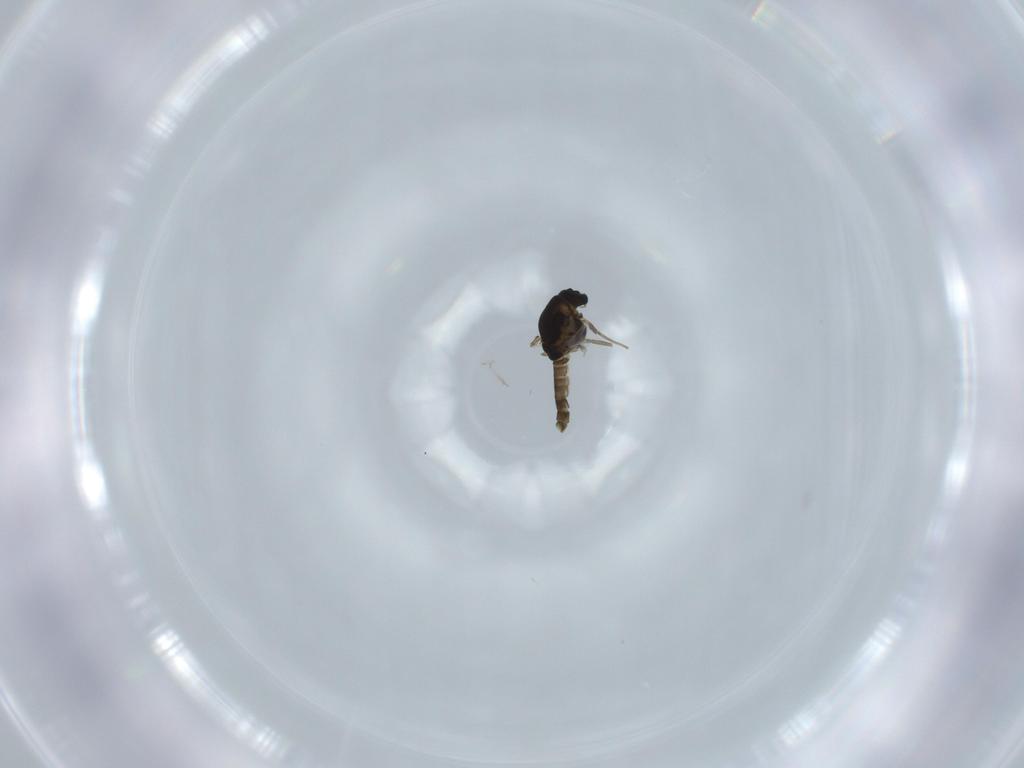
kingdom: Animalia
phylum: Arthropoda
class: Insecta
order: Diptera
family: Chironomidae
